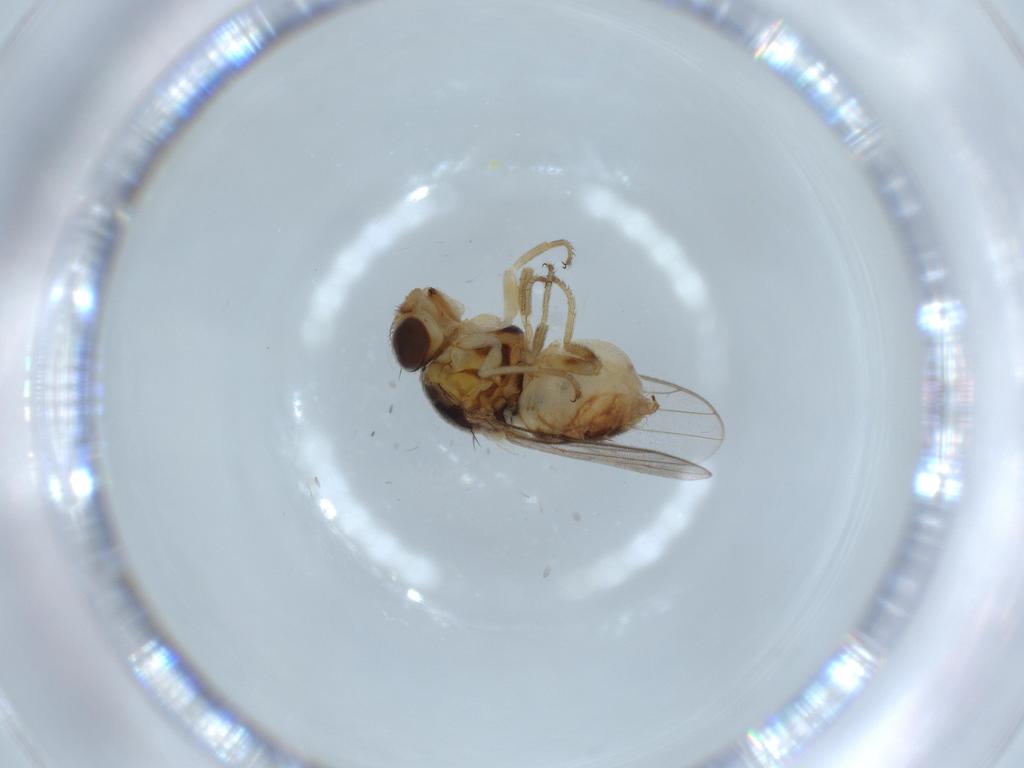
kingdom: Animalia
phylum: Arthropoda
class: Insecta
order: Diptera
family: Chloropidae
